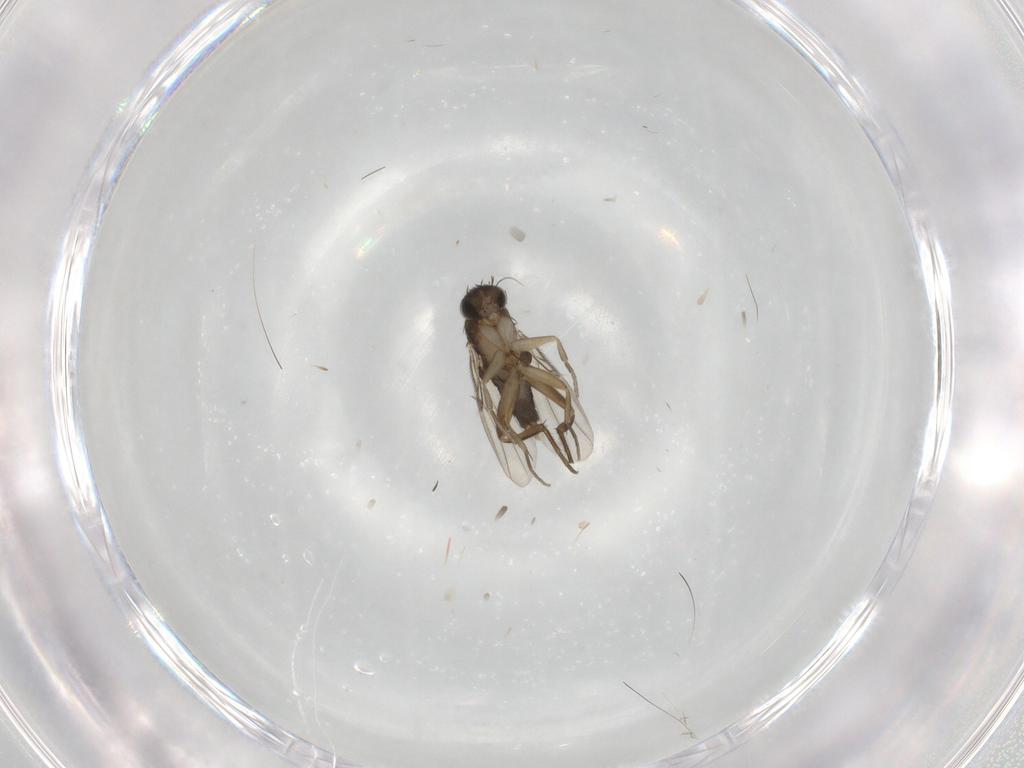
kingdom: Animalia
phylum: Arthropoda
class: Insecta
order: Diptera
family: Phoridae
